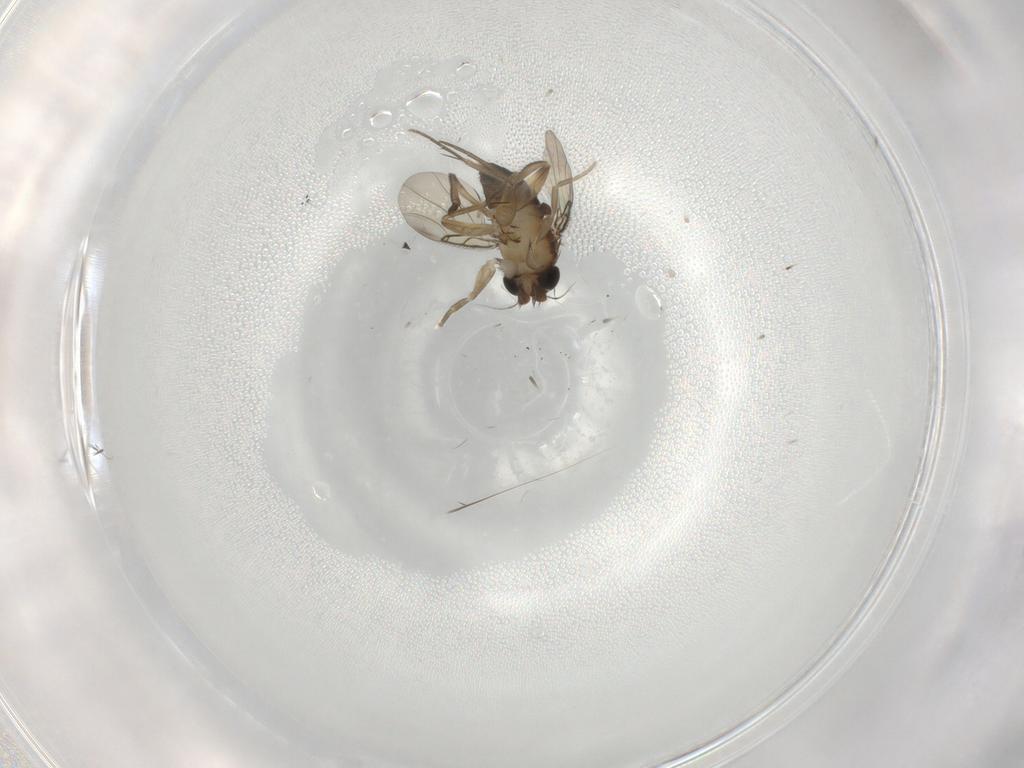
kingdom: Animalia
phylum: Arthropoda
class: Insecta
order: Diptera
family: Phoridae
